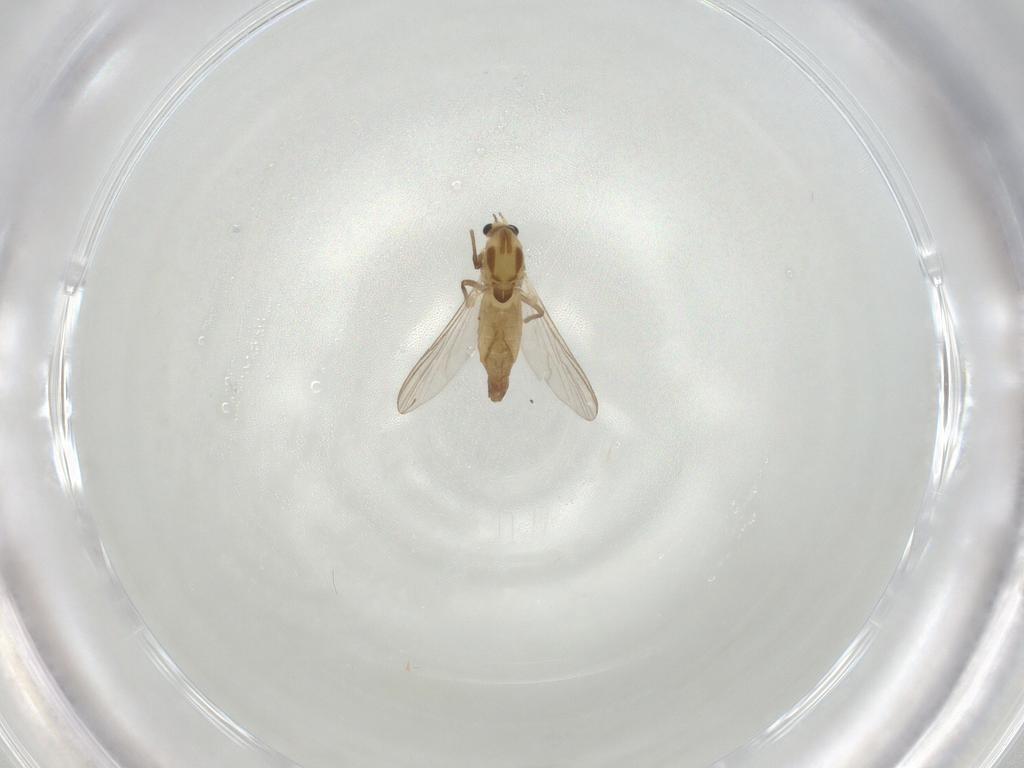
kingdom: Animalia
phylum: Arthropoda
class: Insecta
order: Diptera
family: Chironomidae
